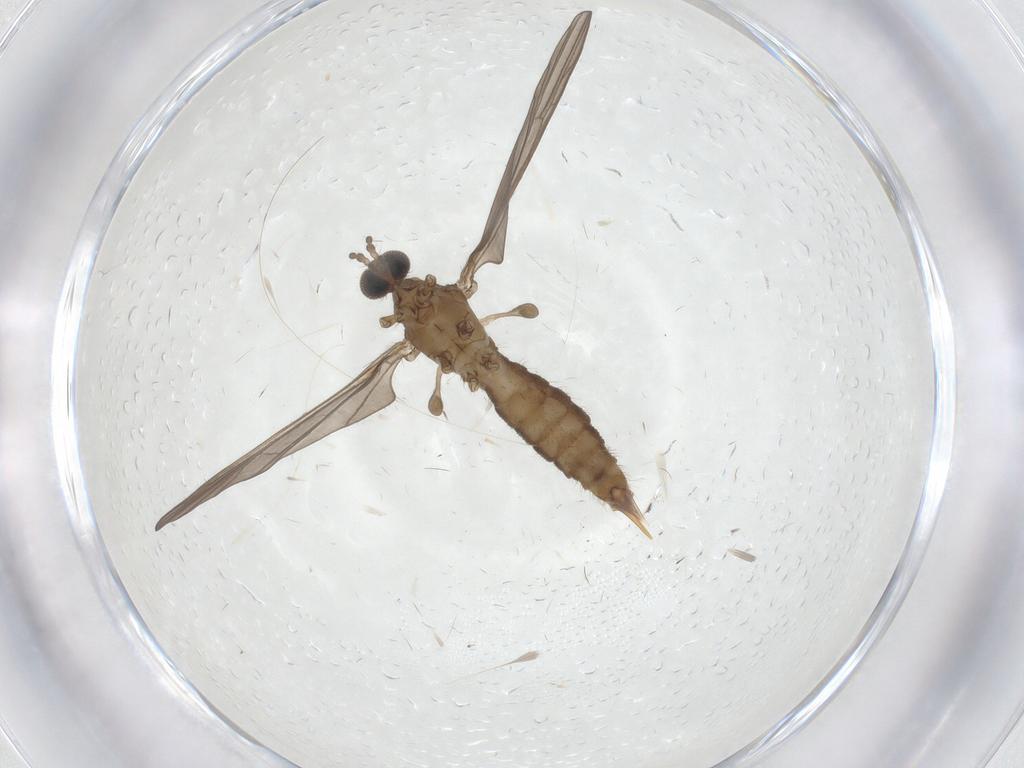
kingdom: Animalia
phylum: Arthropoda
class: Insecta
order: Diptera
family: Limoniidae
